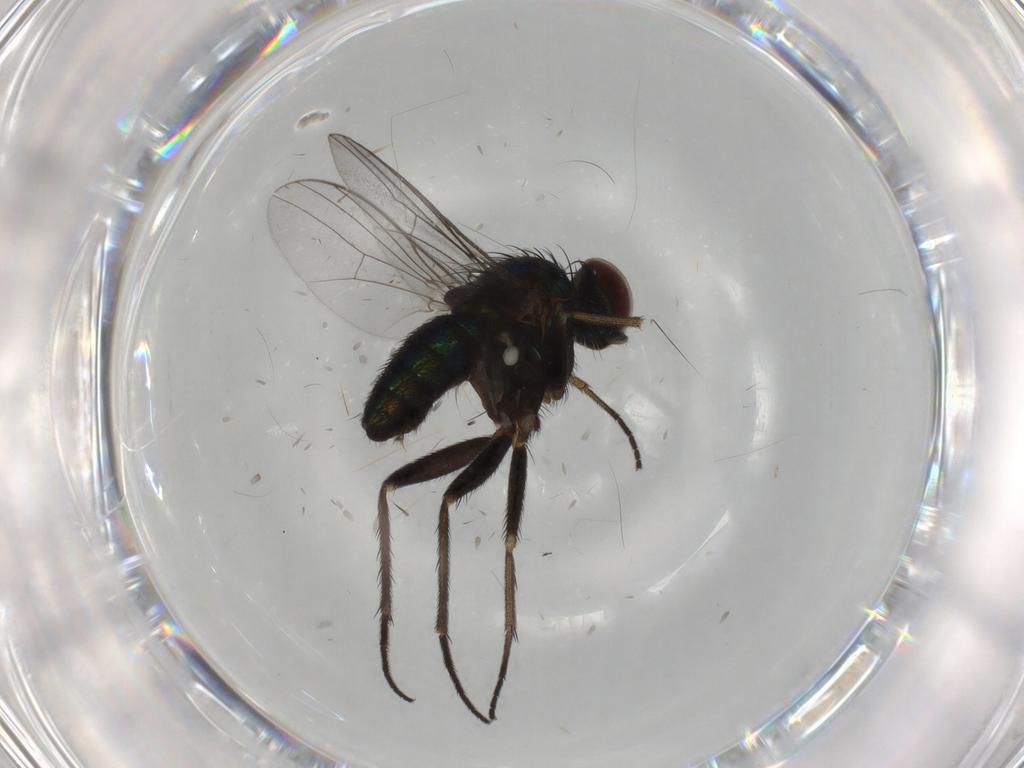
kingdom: Animalia
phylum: Arthropoda
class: Insecta
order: Diptera
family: Dolichopodidae
